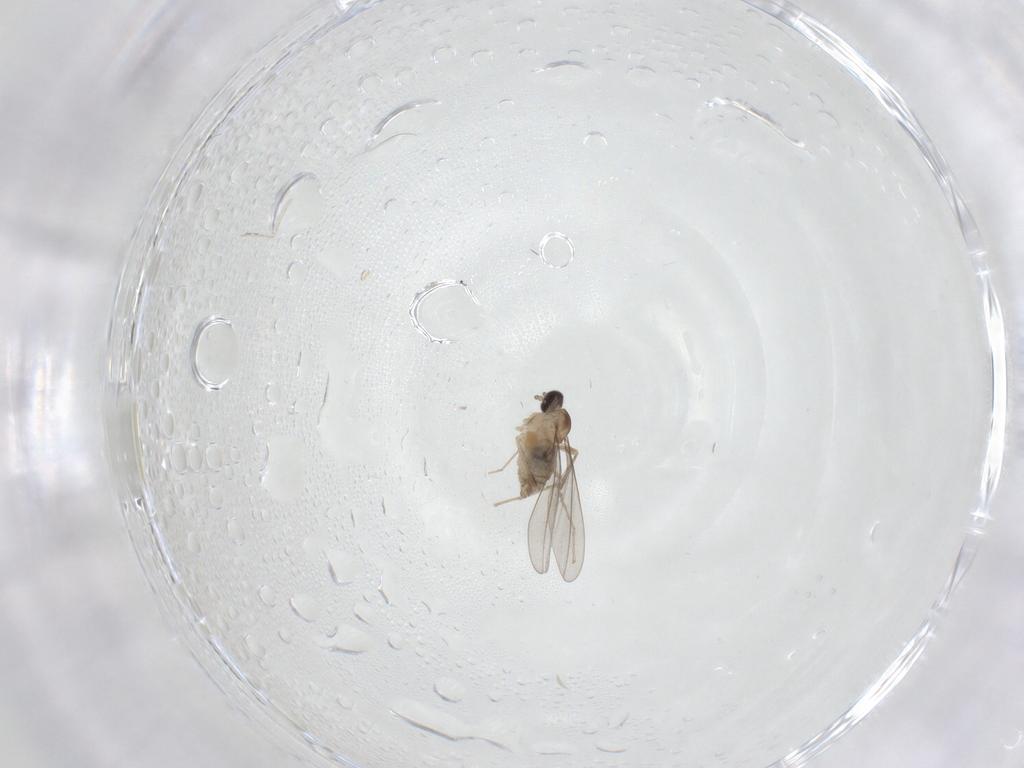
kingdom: Animalia
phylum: Arthropoda
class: Insecta
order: Diptera
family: Cecidomyiidae
